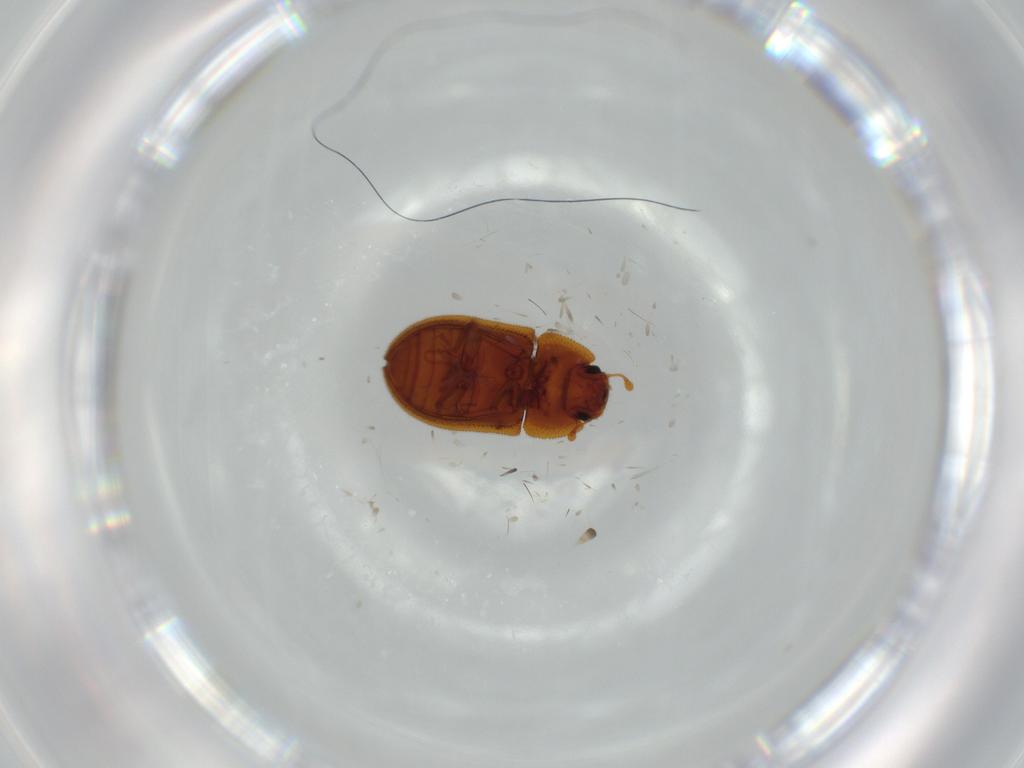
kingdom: Animalia
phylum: Arthropoda
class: Insecta
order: Coleoptera
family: Zopheridae
